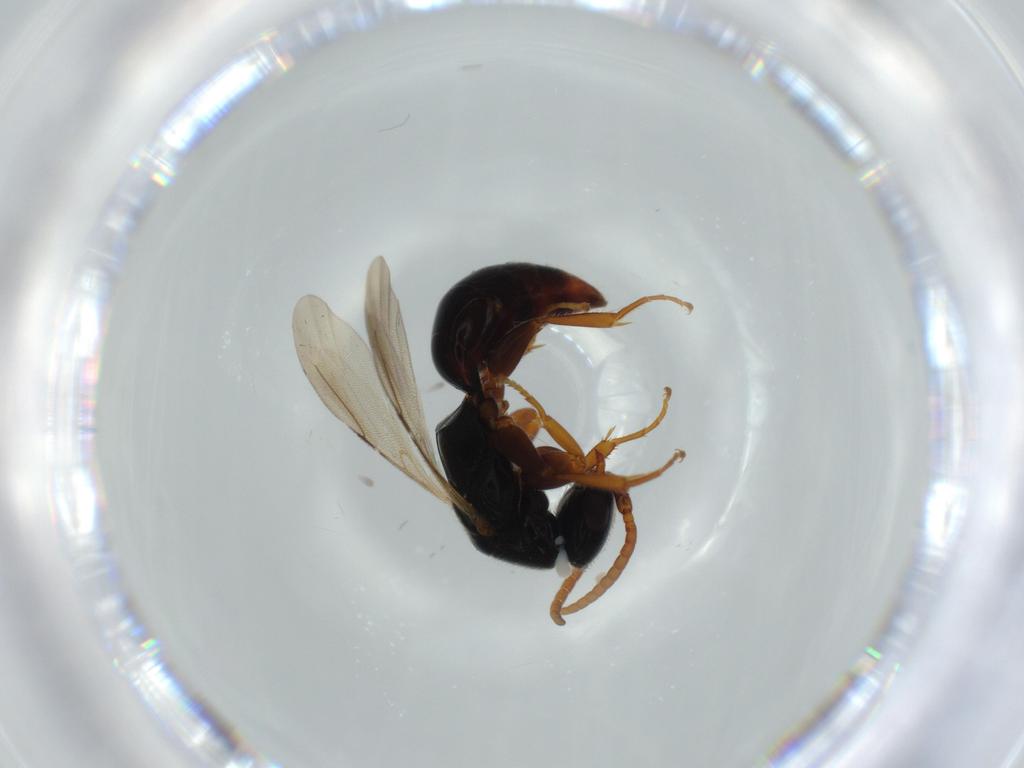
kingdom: Animalia
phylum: Arthropoda
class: Insecta
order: Hymenoptera
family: Bethylidae
